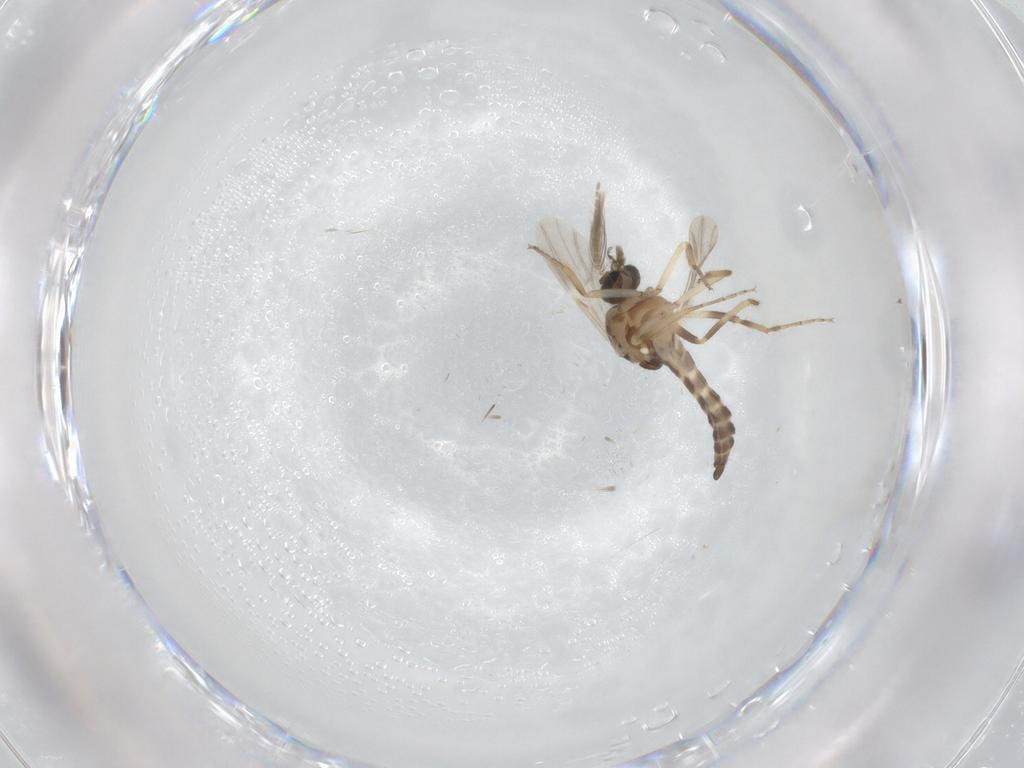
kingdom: Animalia
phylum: Arthropoda
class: Insecta
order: Diptera
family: Ceratopogonidae
